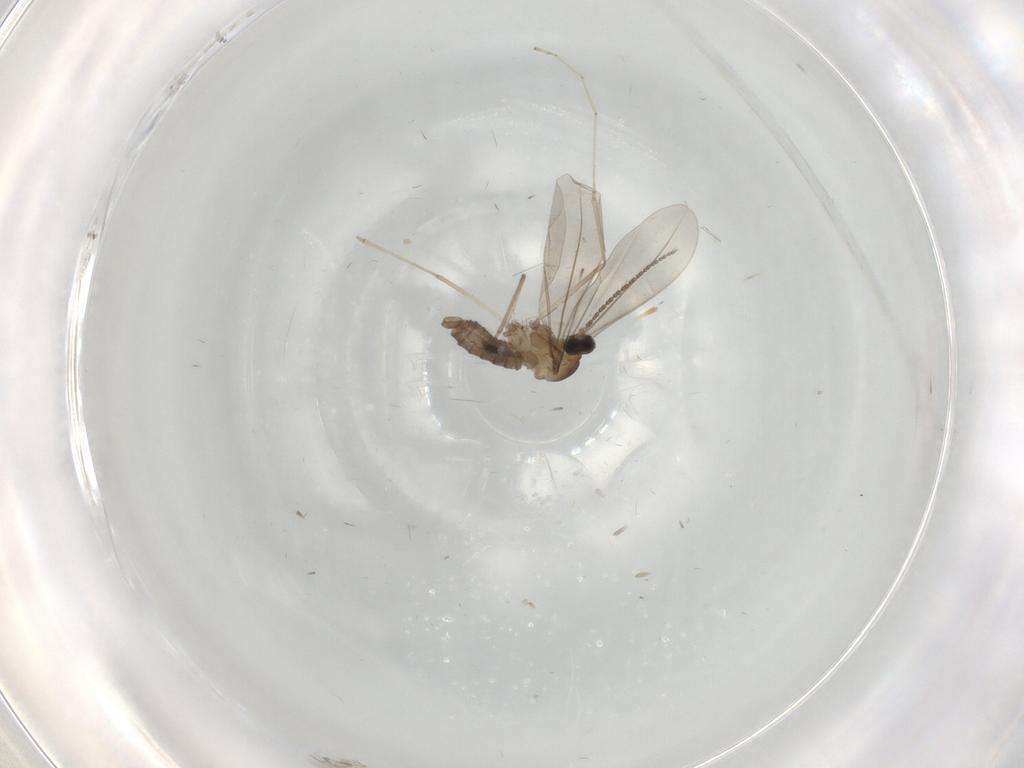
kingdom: Animalia
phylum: Arthropoda
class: Insecta
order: Diptera
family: Cecidomyiidae
